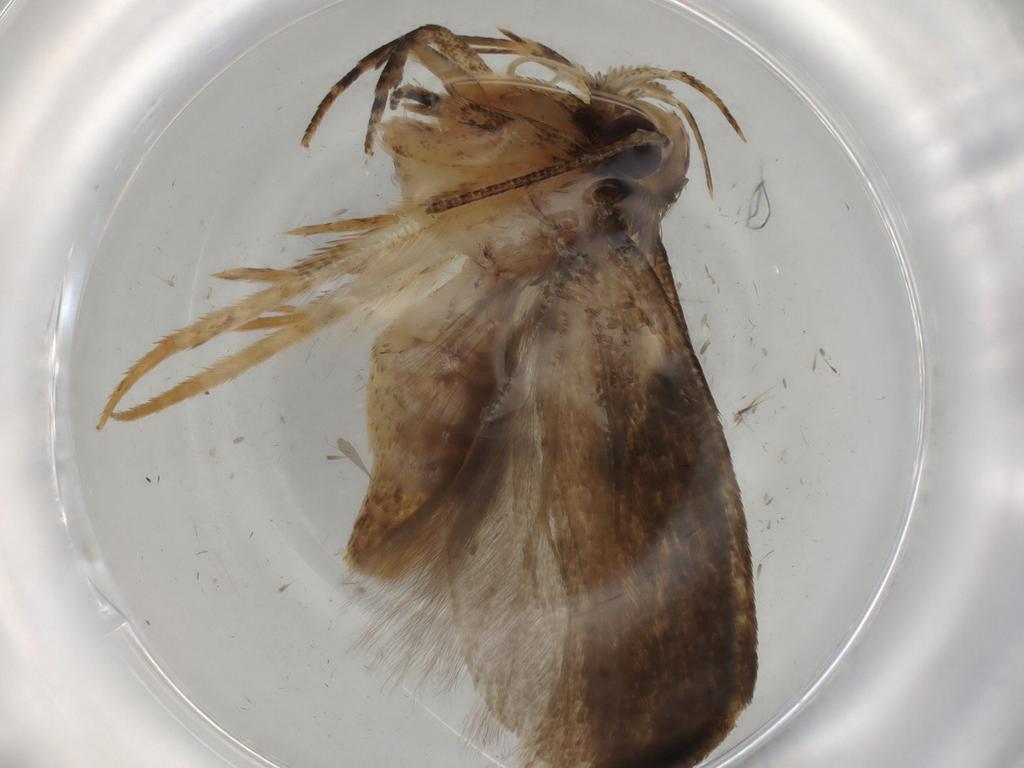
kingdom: Animalia
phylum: Arthropoda
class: Insecta
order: Lepidoptera
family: Gelechiidae
